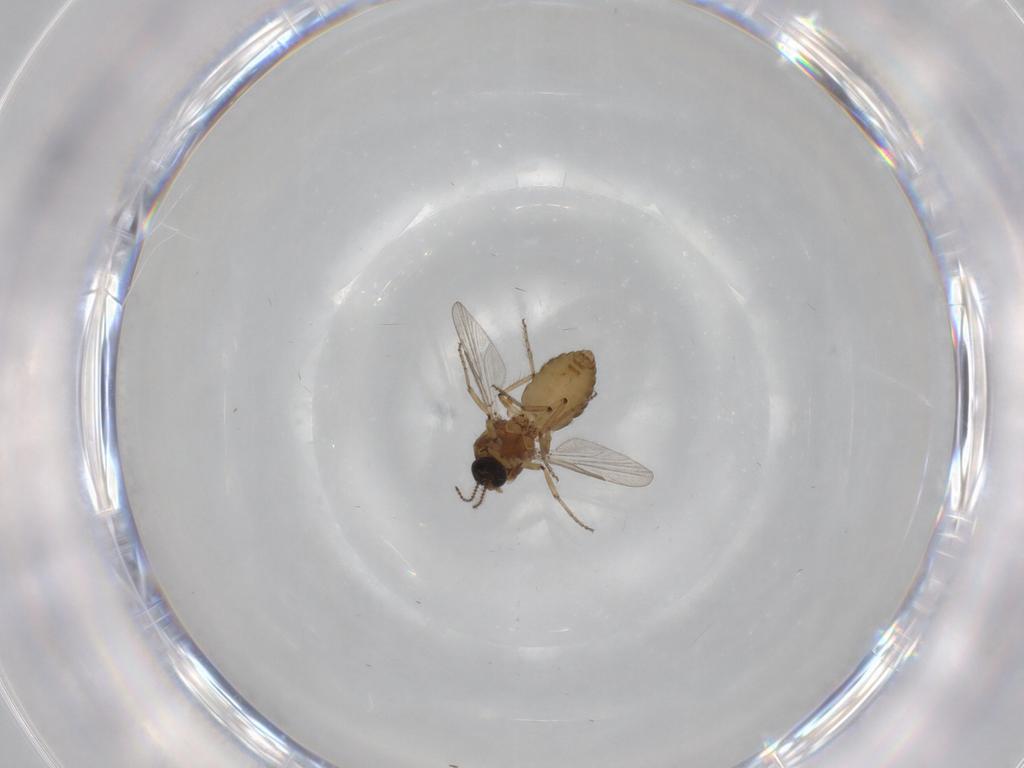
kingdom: Animalia
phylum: Arthropoda
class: Insecta
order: Diptera
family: Ceratopogonidae
